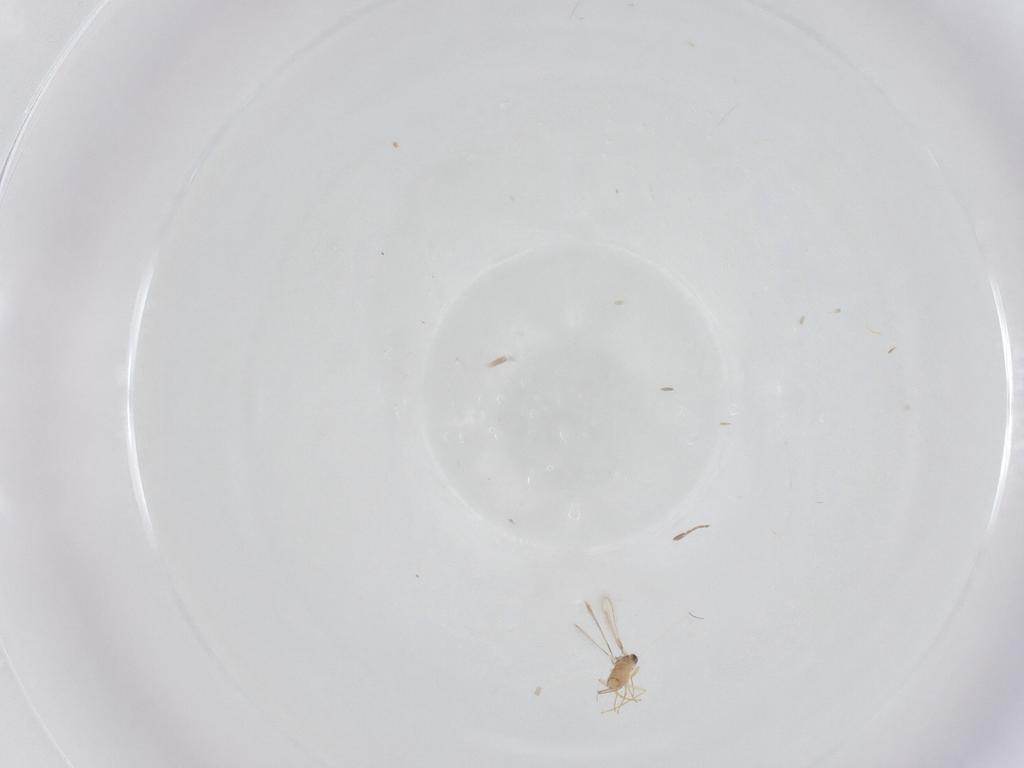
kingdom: Animalia
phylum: Arthropoda
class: Insecta
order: Hymenoptera
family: Mymaridae
